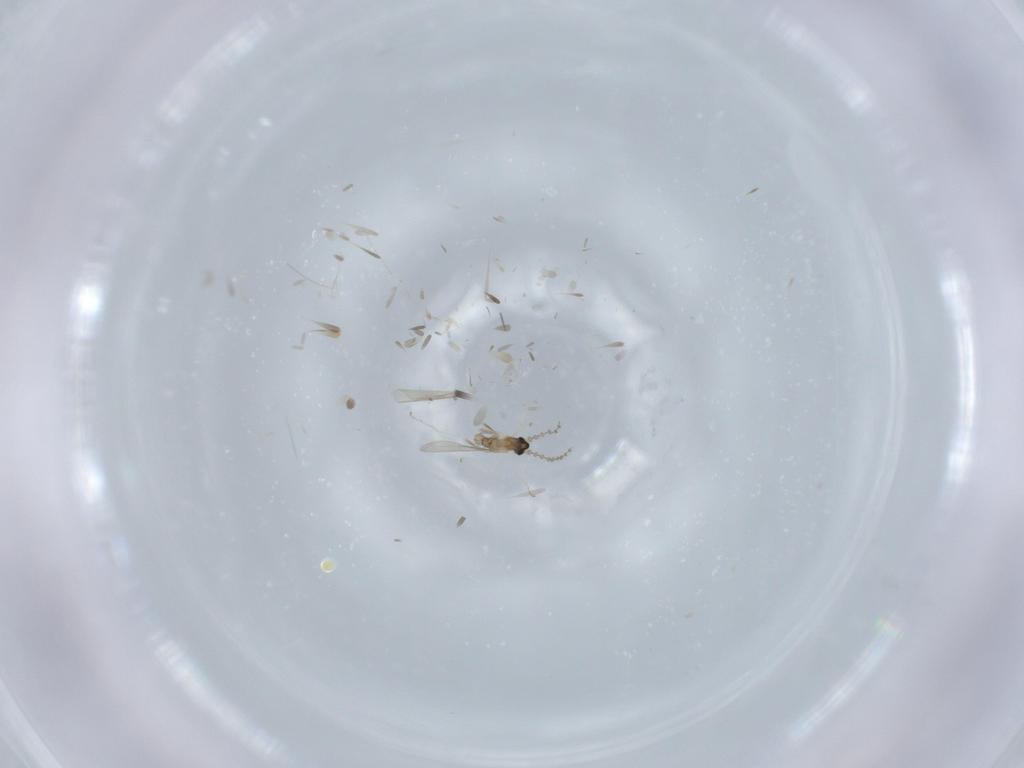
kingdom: Animalia
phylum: Arthropoda
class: Insecta
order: Diptera
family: Cecidomyiidae
